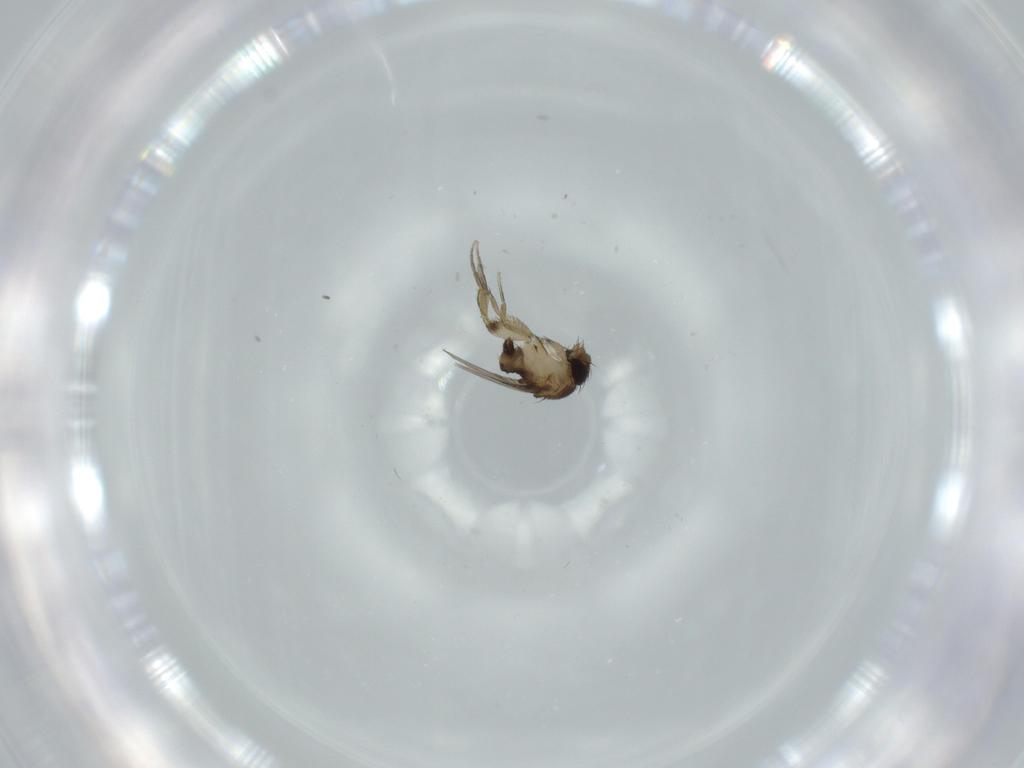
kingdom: Animalia
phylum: Arthropoda
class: Insecta
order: Diptera
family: Phoridae
